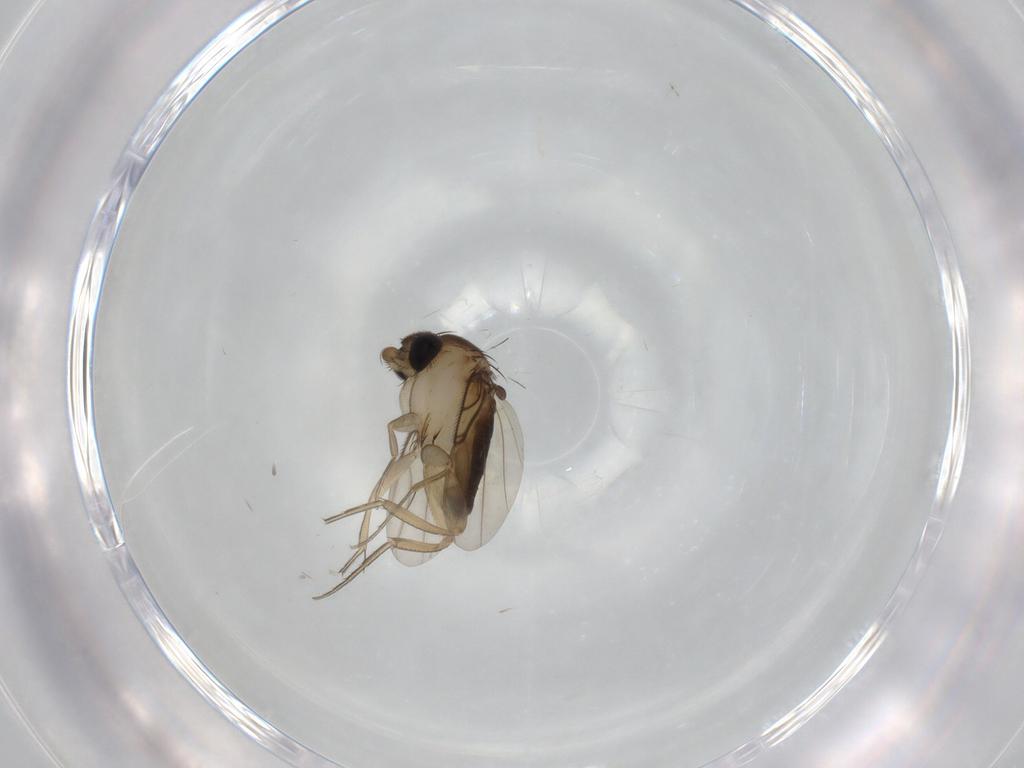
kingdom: Animalia
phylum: Arthropoda
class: Insecta
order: Diptera
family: Phoridae
